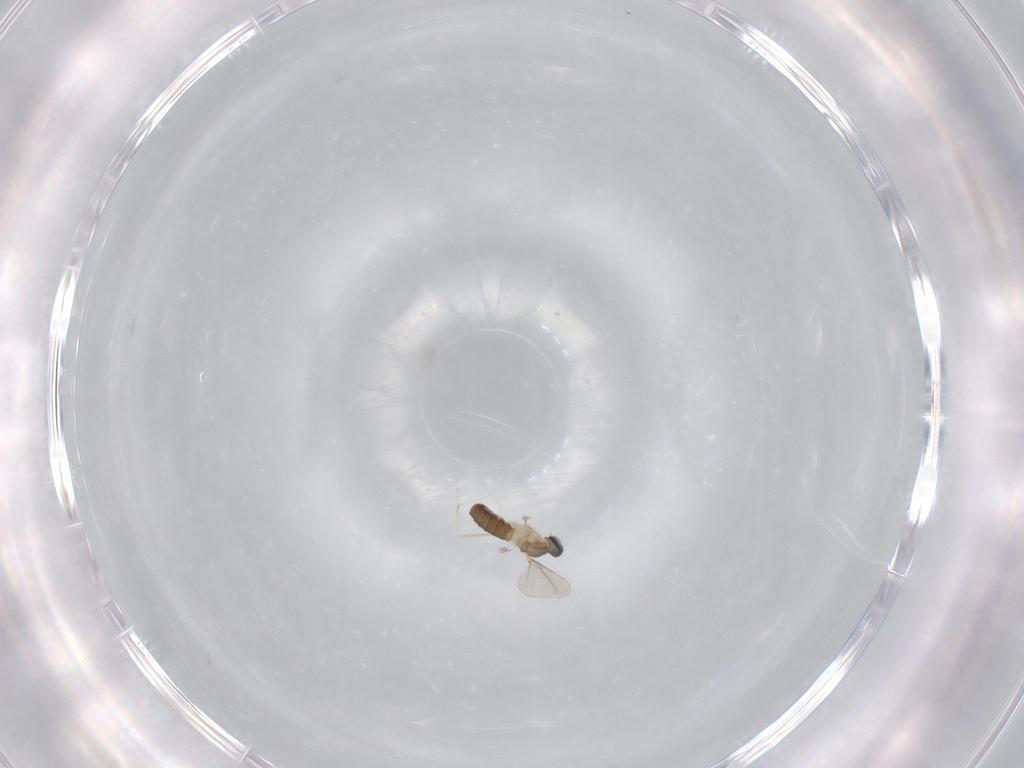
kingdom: Animalia
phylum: Arthropoda
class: Insecta
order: Diptera
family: Cecidomyiidae
